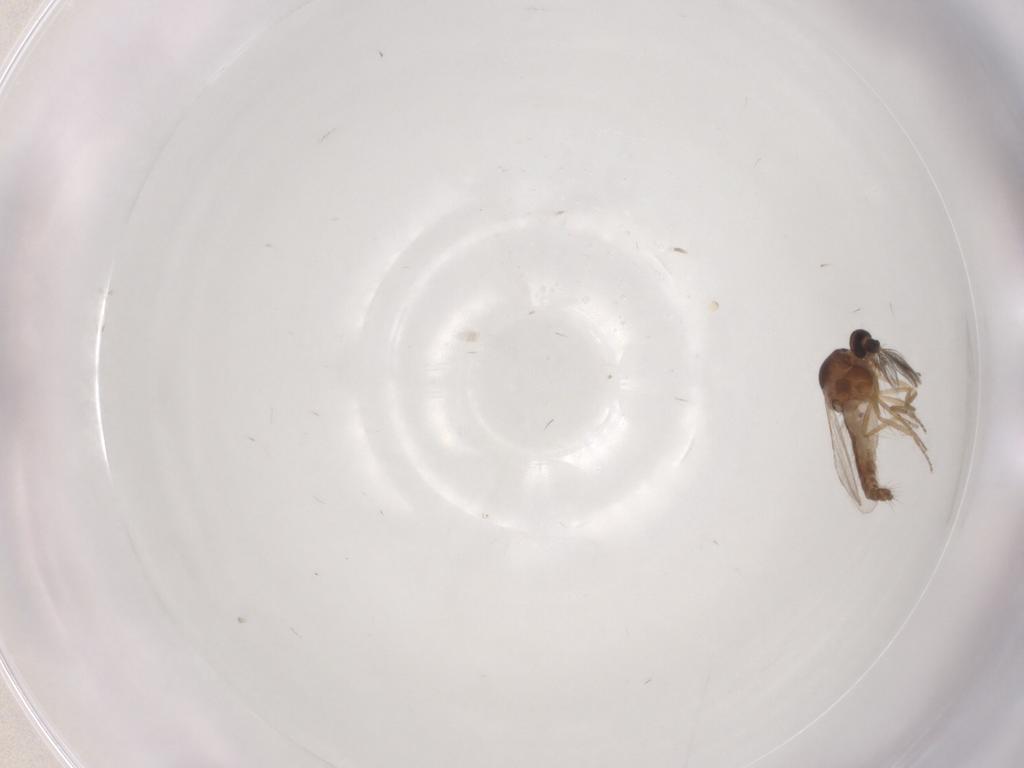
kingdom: Animalia
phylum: Arthropoda
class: Insecta
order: Diptera
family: Ceratopogonidae
